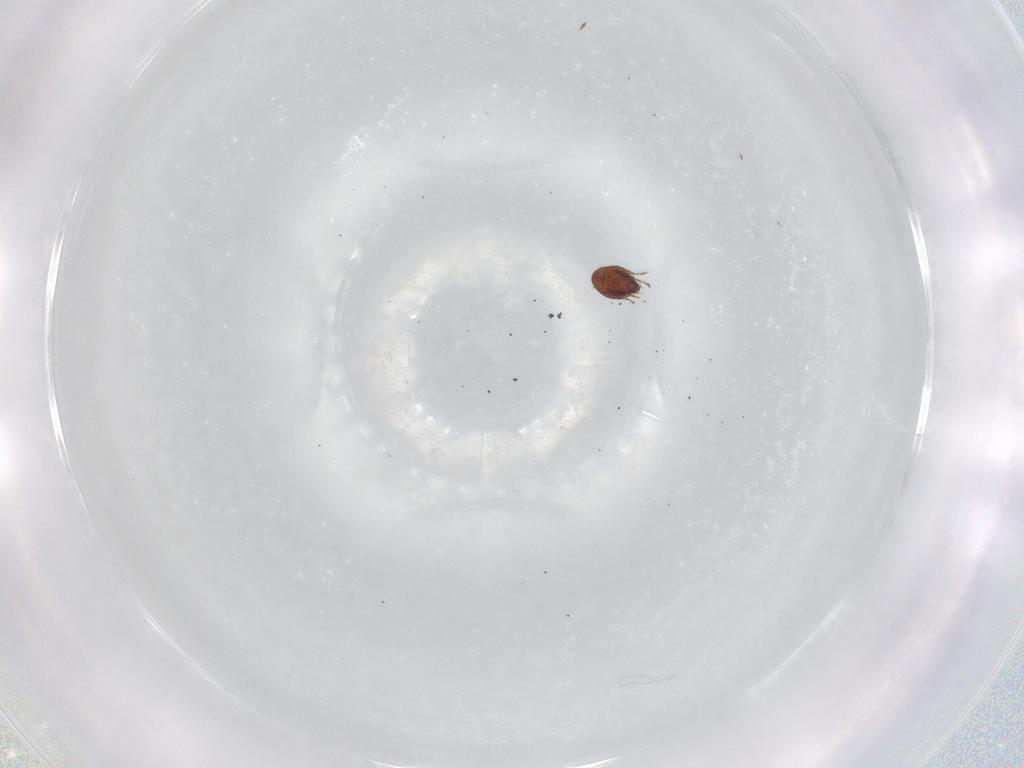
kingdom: Animalia
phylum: Arthropoda
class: Arachnida
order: Sarcoptiformes
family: Ceratozetidae
